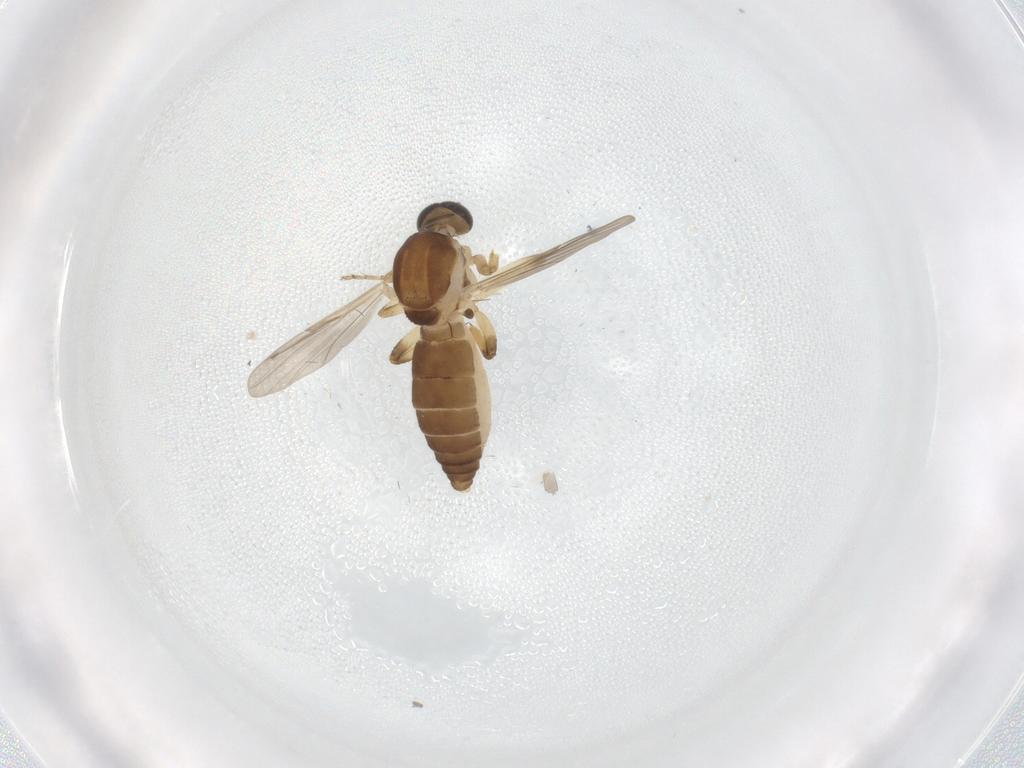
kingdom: Animalia
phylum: Arthropoda
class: Insecta
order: Diptera
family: Ceratopogonidae
